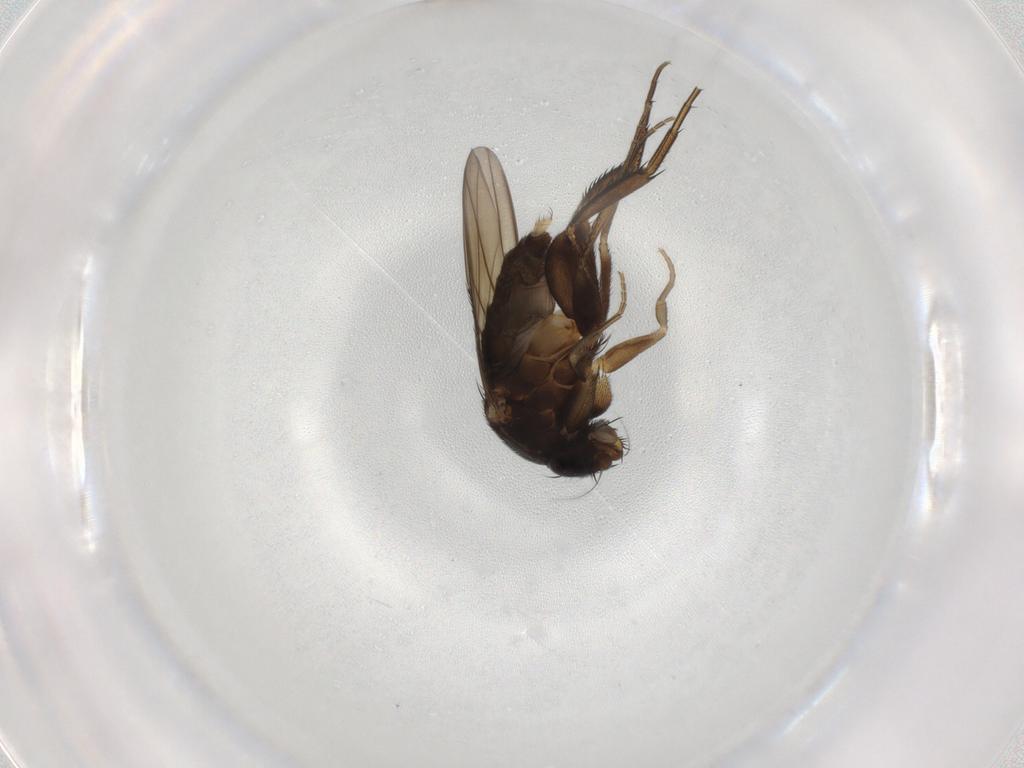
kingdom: Animalia
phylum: Arthropoda
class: Insecta
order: Diptera
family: Phoridae
